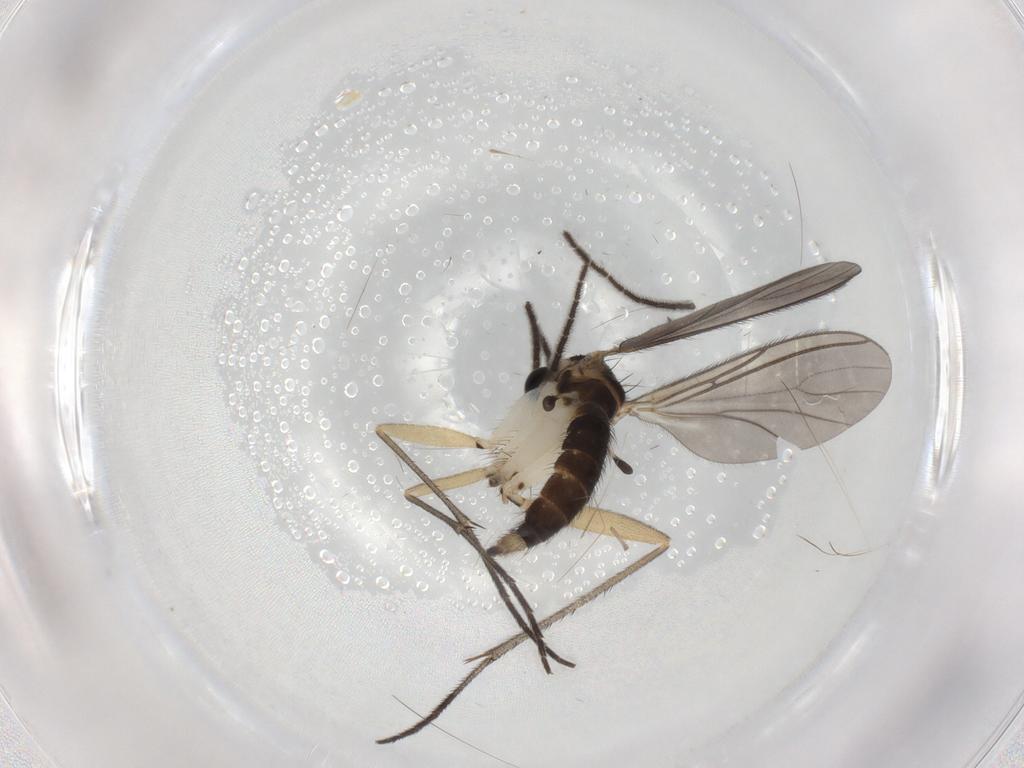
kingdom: Animalia
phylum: Arthropoda
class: Insecta
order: Diptera
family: Sciaridae
